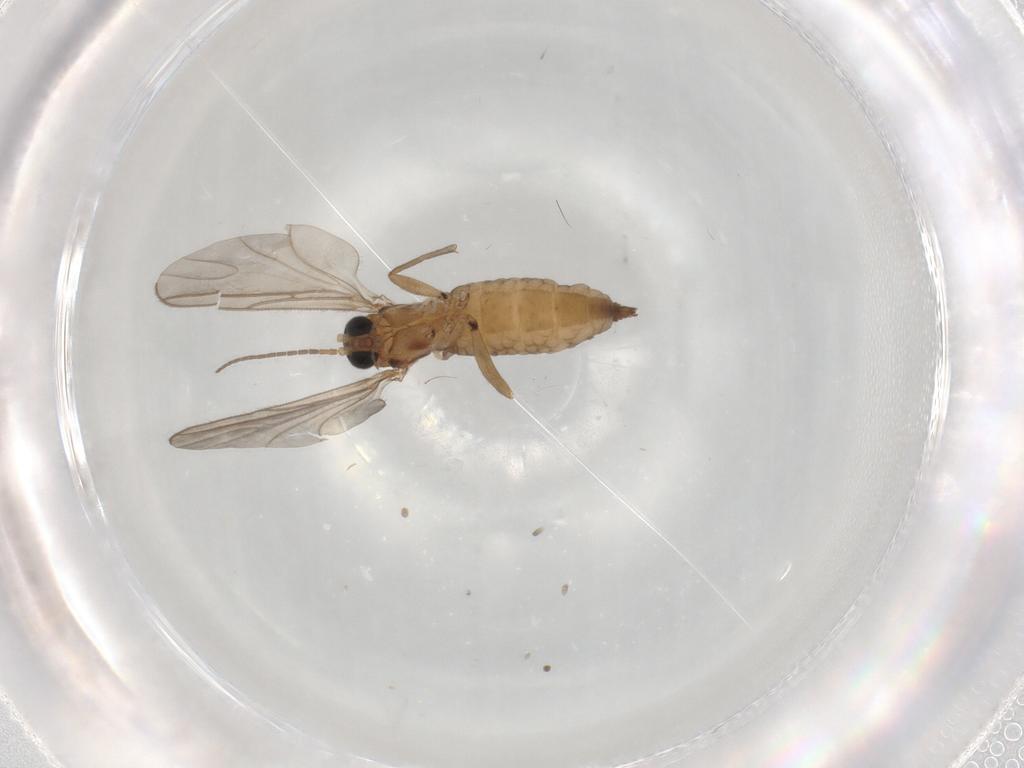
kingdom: Animalia
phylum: Arthropoda
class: Insecta
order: Diptera
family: Sciaridae
